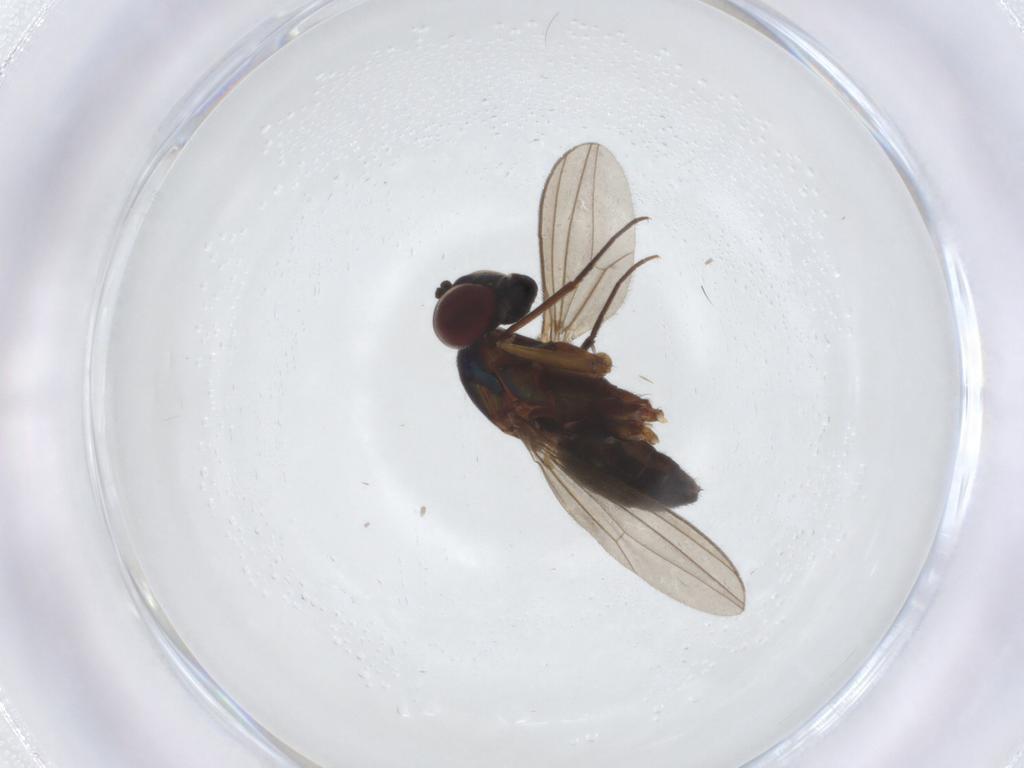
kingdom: Animalia
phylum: Arthropoda
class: Insecta
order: Diptera
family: Dolichopodidae
